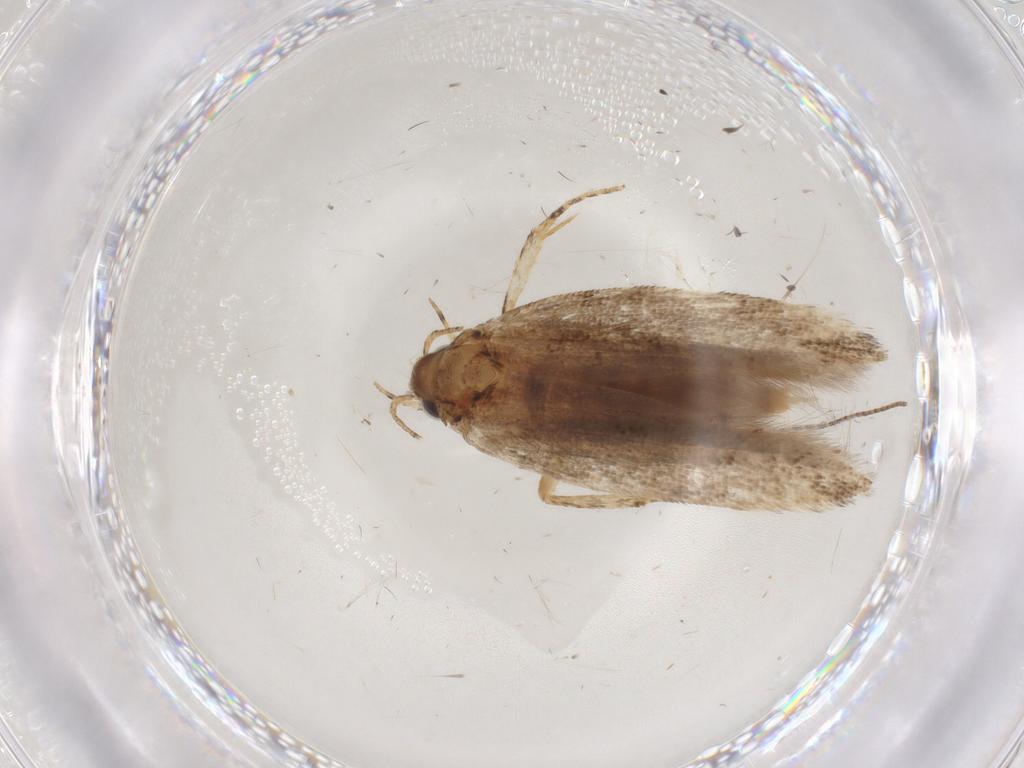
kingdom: Animalia
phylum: Arthropoda
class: Insecta
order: Lepidoptera
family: Gelechiidae
